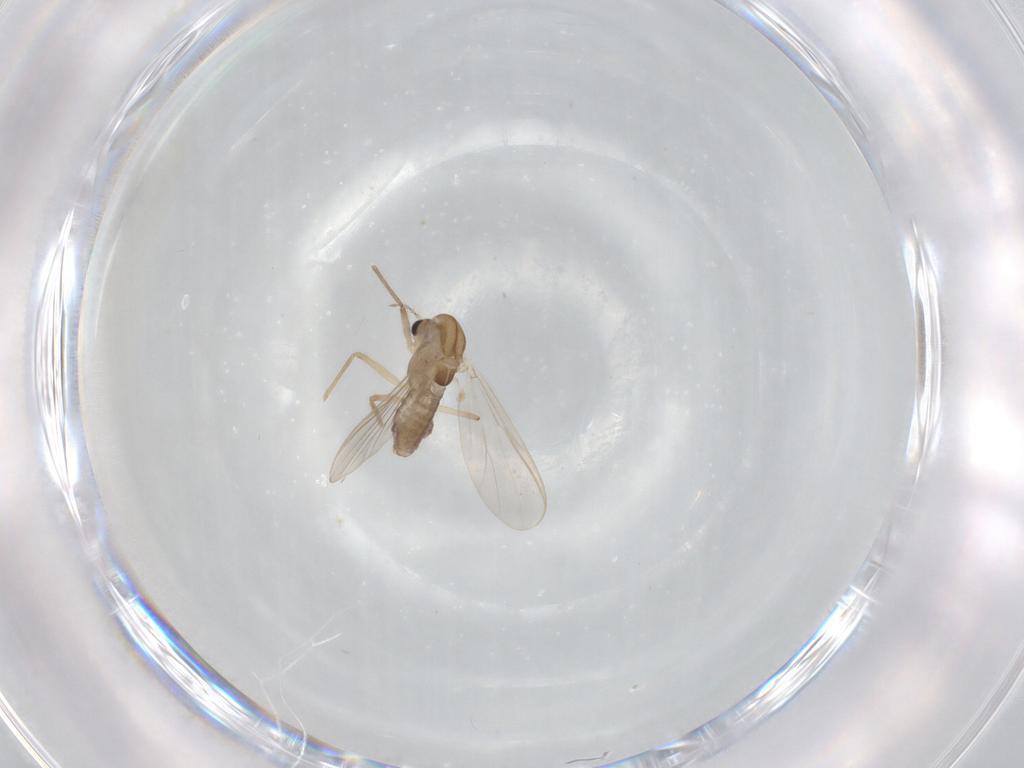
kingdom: Animalia
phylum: Arthropoda
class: Insecta
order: Diptera
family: Chironomidae
